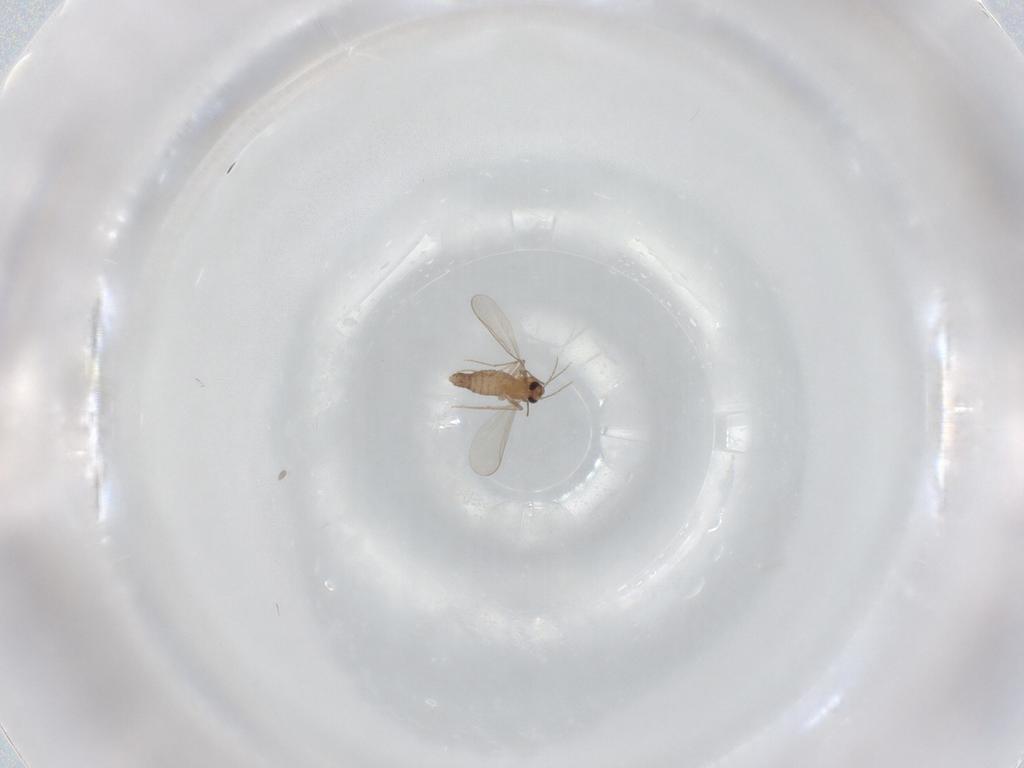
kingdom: Animalia
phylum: Arthropoda
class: Insecta
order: Diptera
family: Chironomidae
